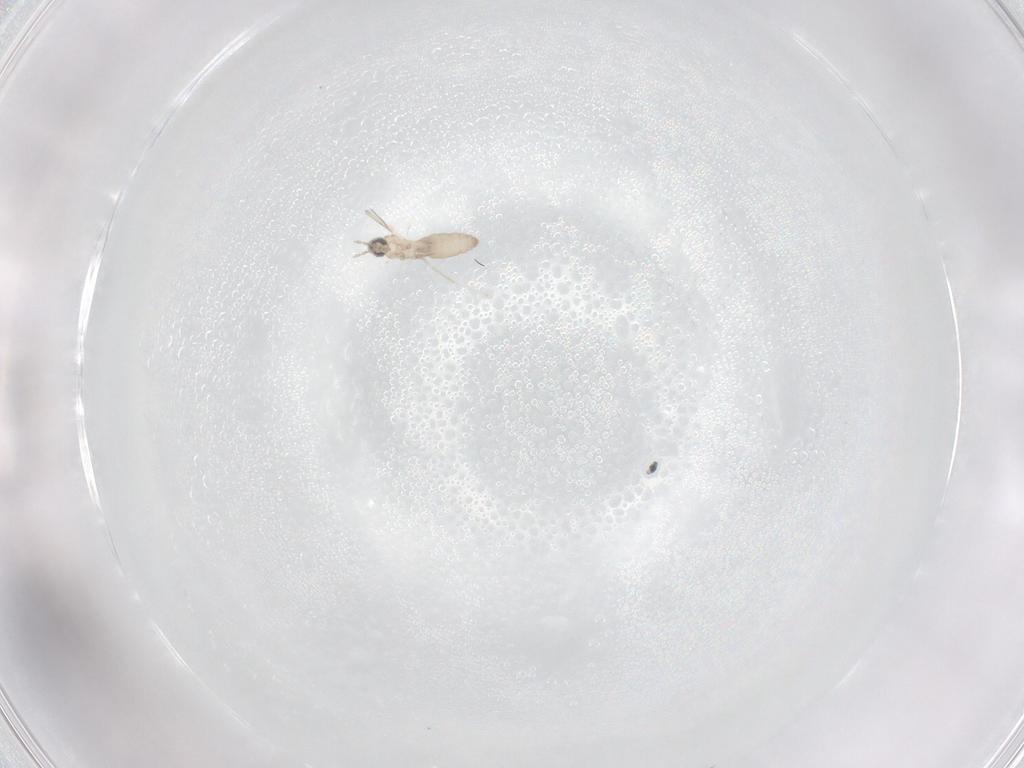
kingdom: Animalia
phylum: Arthropoda
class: Insecta
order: Diptera
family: Cecidomyiidae
